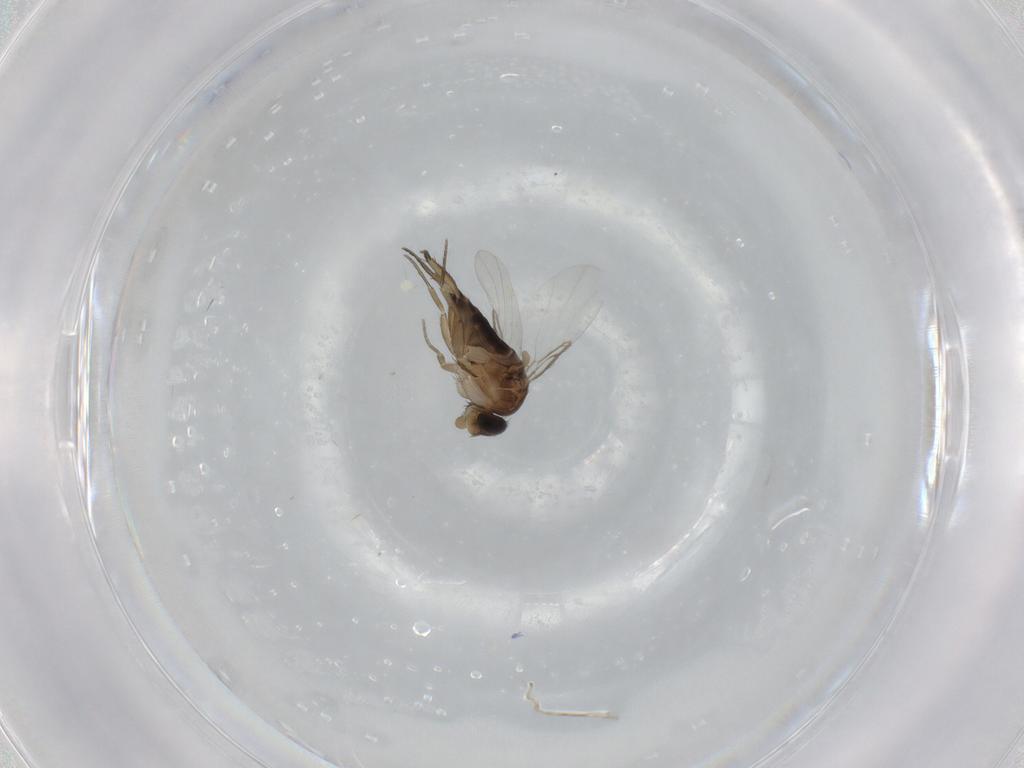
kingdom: Animalia
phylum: Arthropoda
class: Insecta
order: Diptera
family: Phoridae
